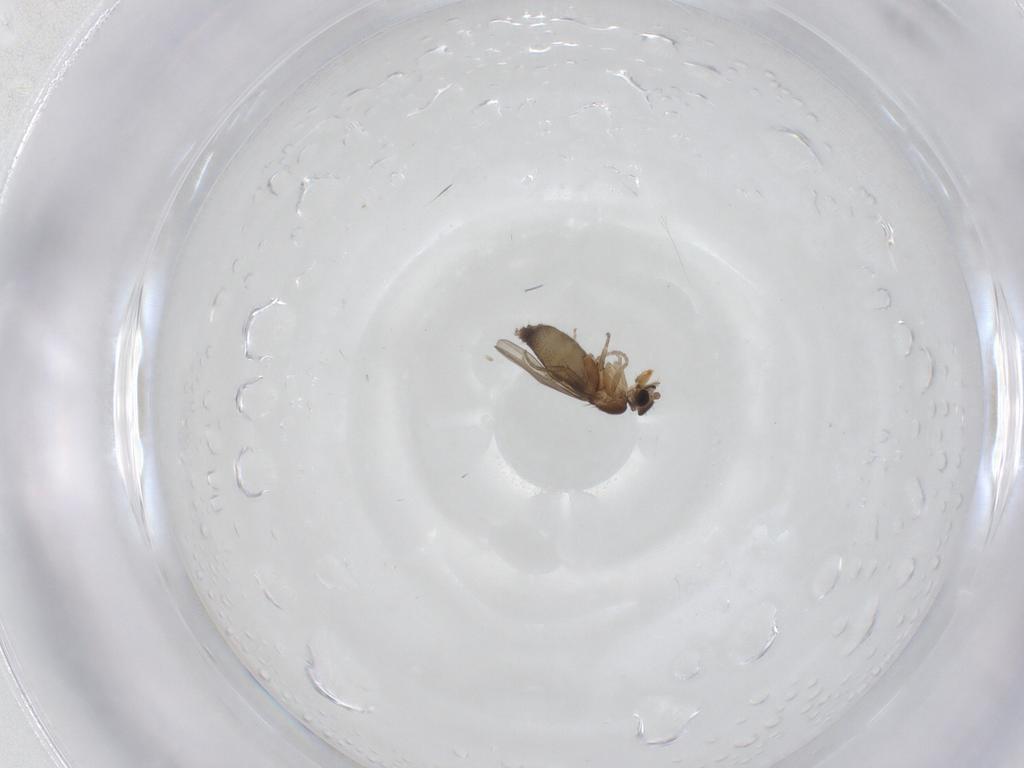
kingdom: Animalia
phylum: Arthropoda
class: Insecta
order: Diptera
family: Phoridae
